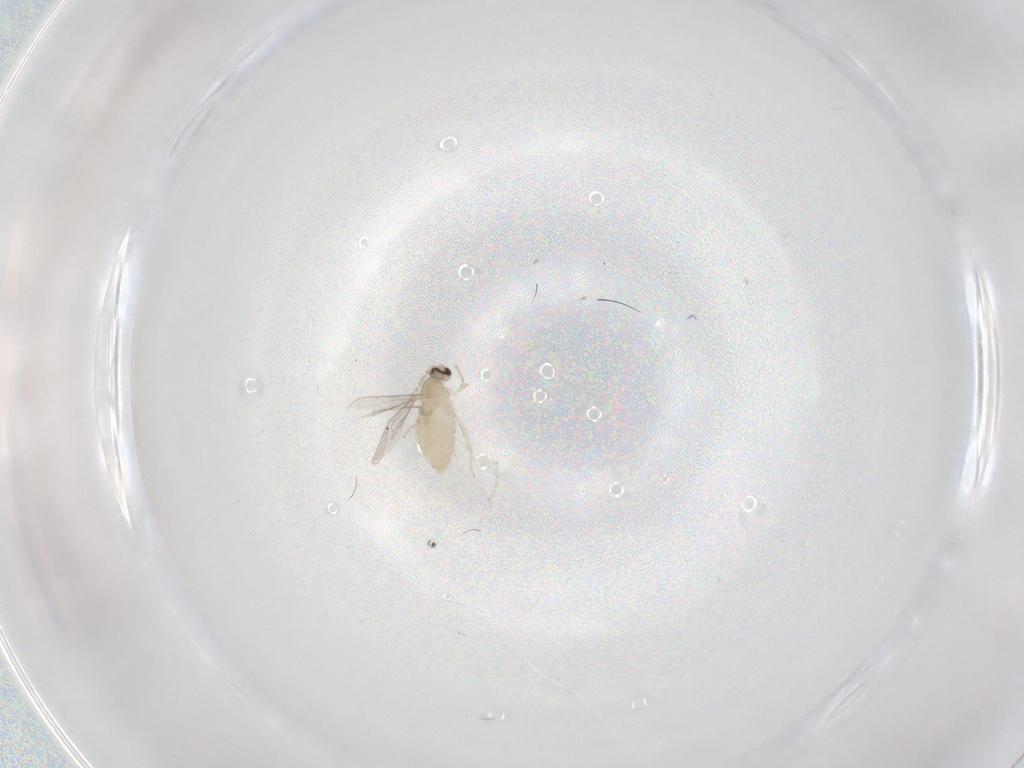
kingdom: Animalia
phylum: Arthropoda
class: Insecta
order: Diptera
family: Cecidomyiidae
